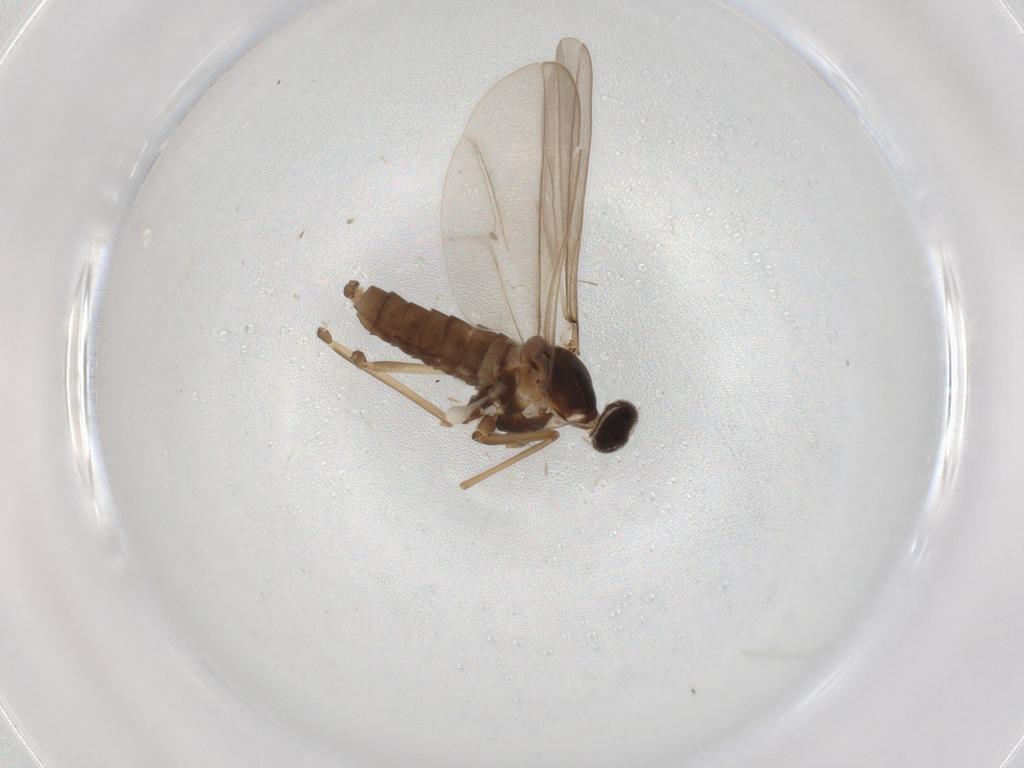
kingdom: Animalia
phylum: Arthropoda
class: Insecta
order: Diptera
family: Cecidomyiidae
